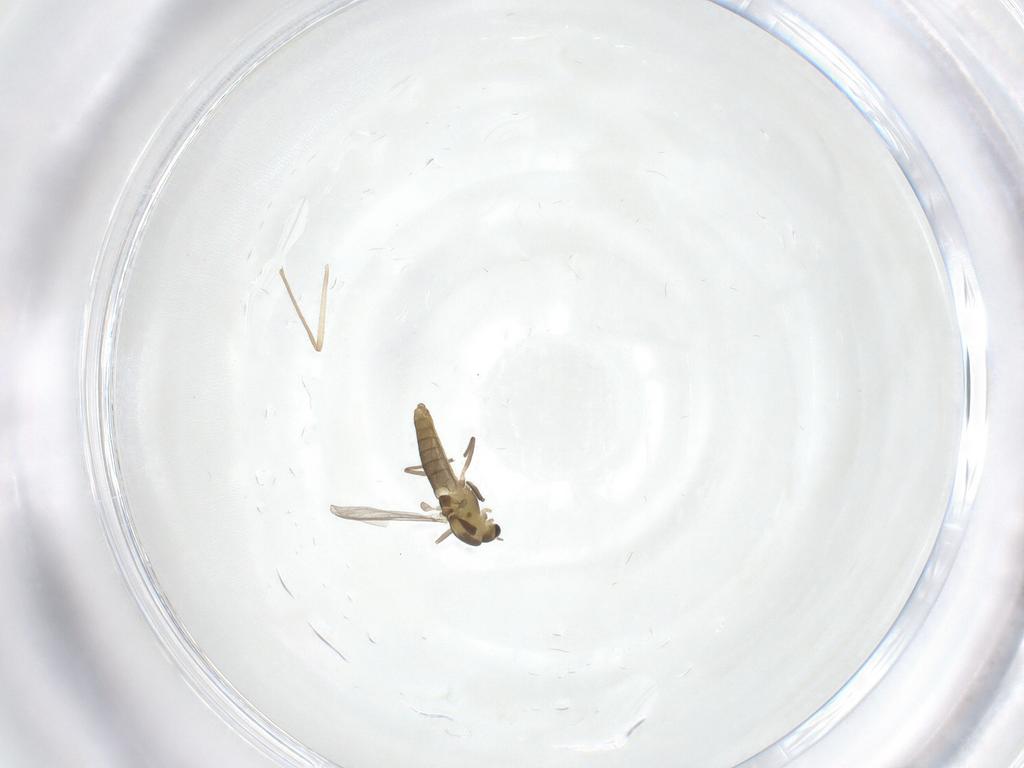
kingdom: Animalia
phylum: Arthropoda
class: Insecta
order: Diptera
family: Chironomidae
